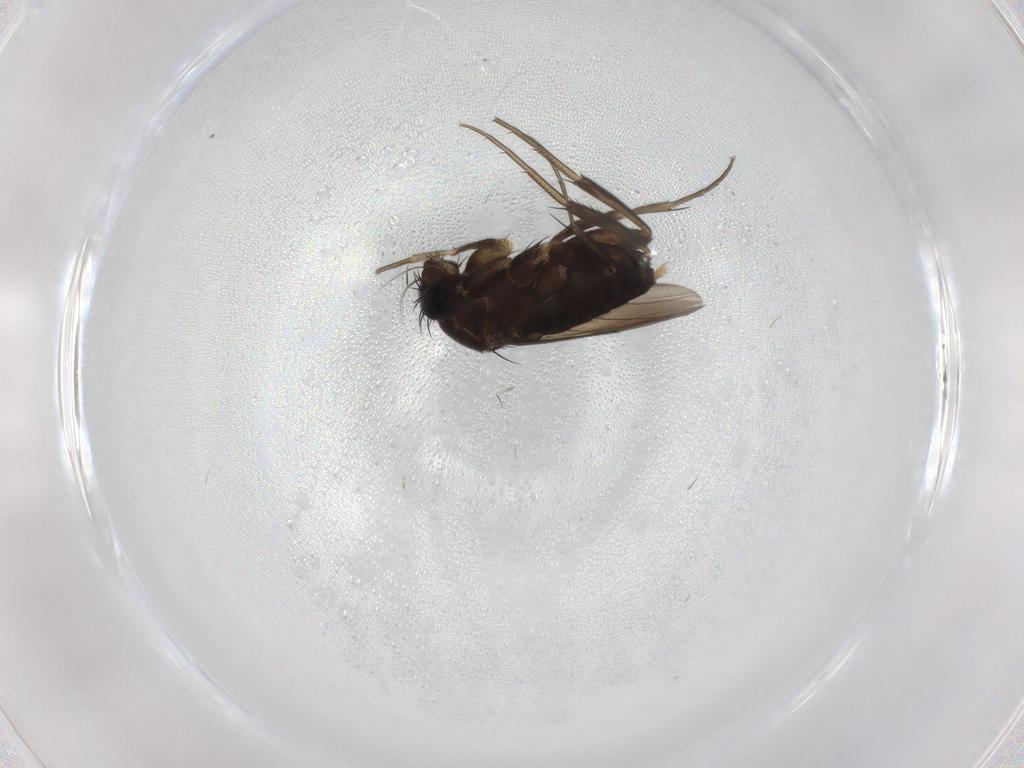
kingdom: Animalia
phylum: Arthropoda
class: Insecta
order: Diptera
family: Phoridae
